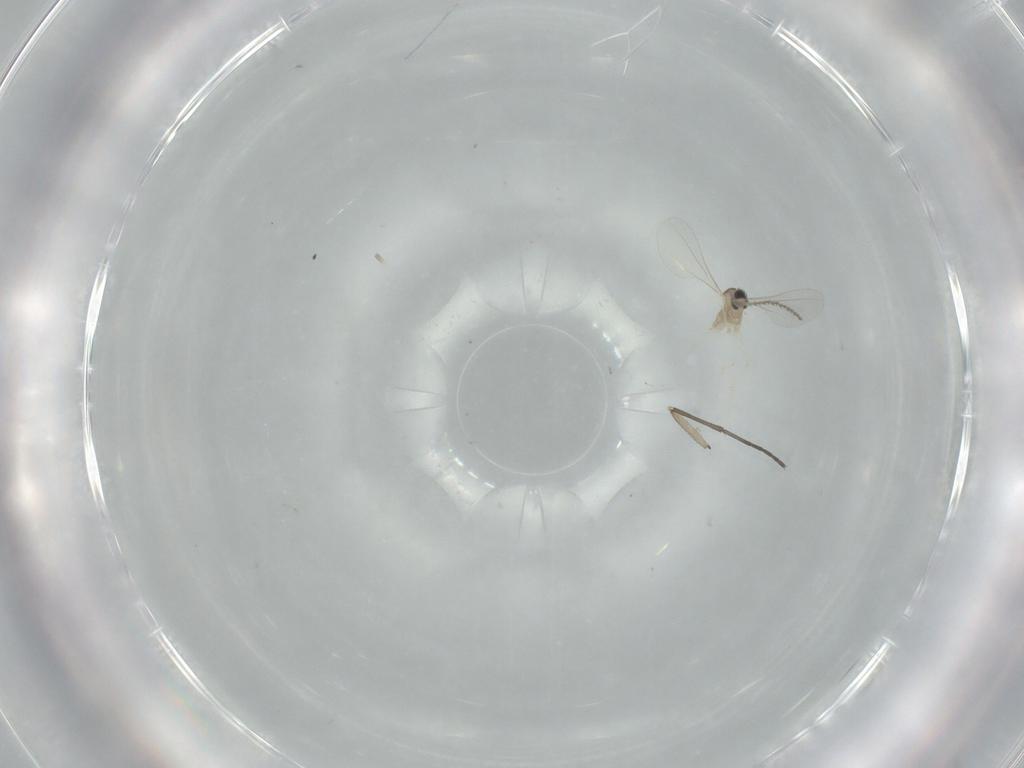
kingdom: Animalia
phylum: Arthropoda
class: Insecta
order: Diptera
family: Cecidomyiidae
